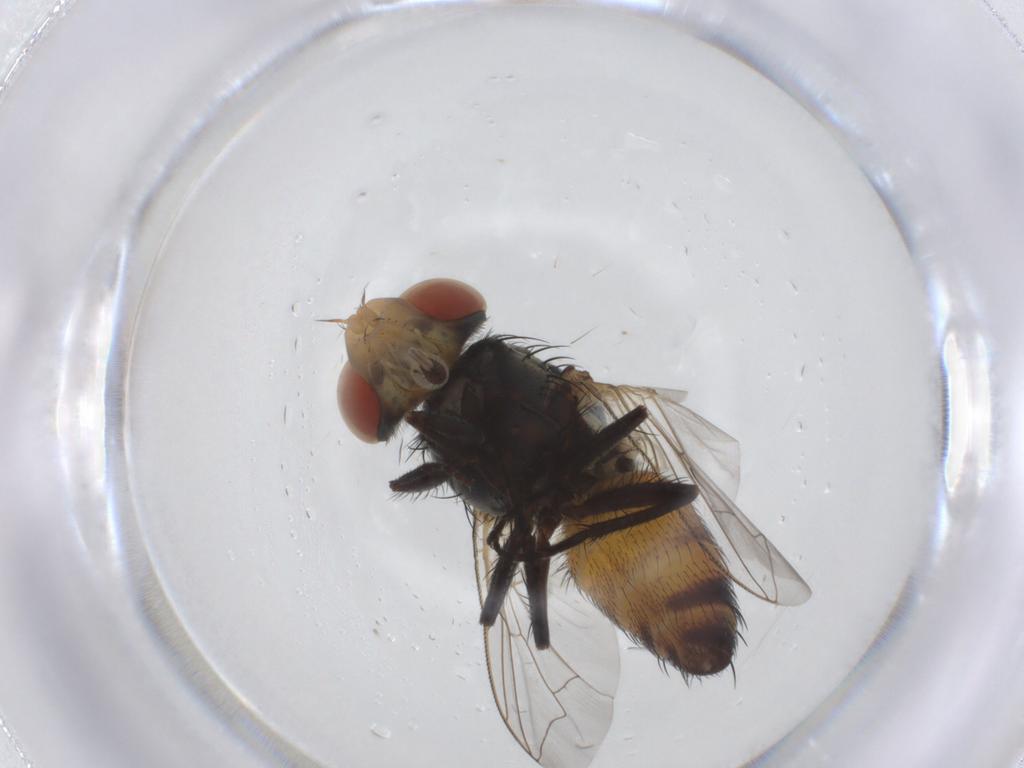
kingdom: Animalia
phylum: Arthropoda
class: Insecta
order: Diptera
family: Sarcophagidae
